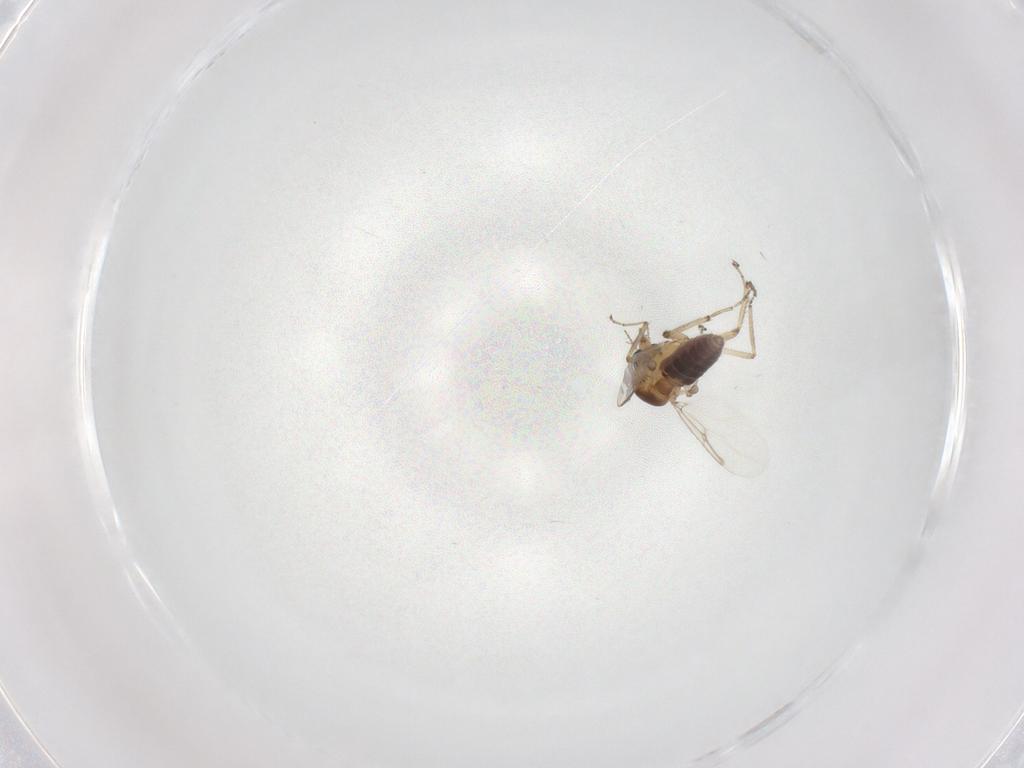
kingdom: Animalia
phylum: Arthropoda
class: Insecta
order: Diptera
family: Ceratopogonidae
